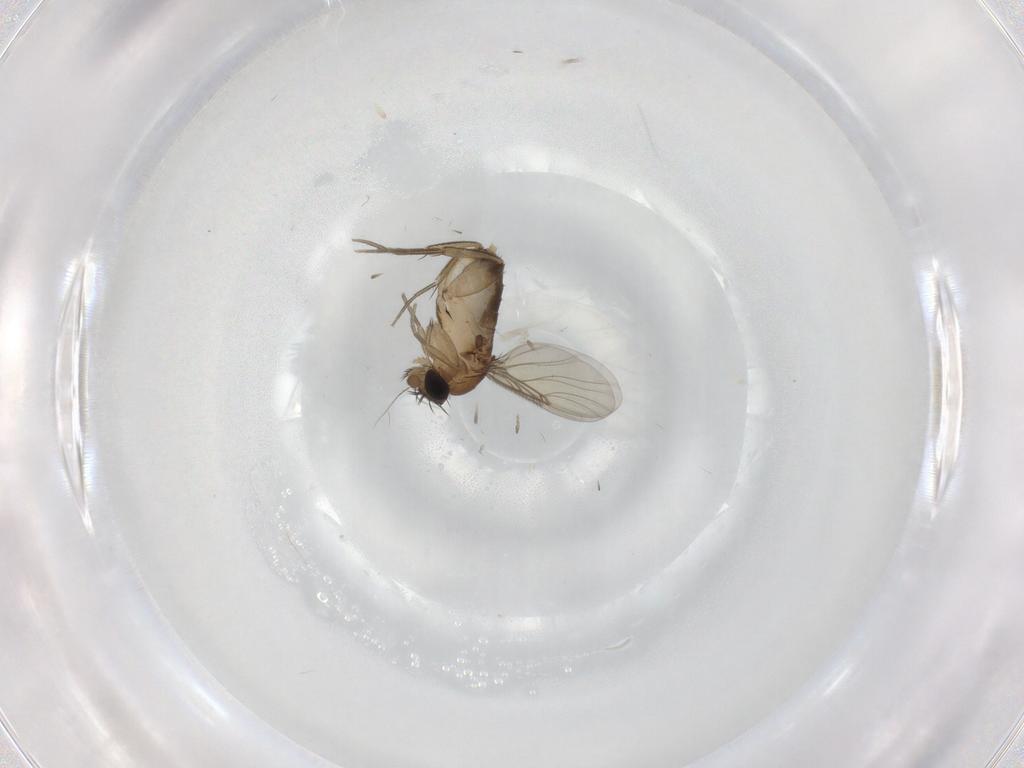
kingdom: Animalia
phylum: Arthropoda
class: Insecta
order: Diptera
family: Phoridae
